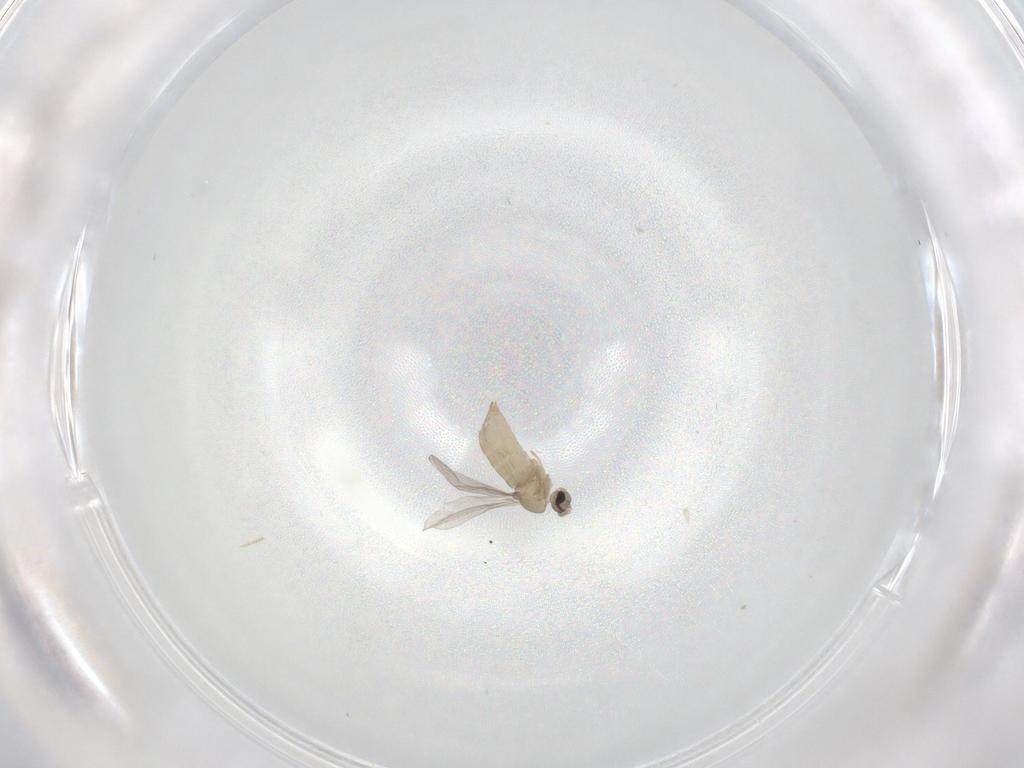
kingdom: Animalia
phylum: Arthropoda
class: Insecta
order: Diptera
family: Cecidomyiidae
